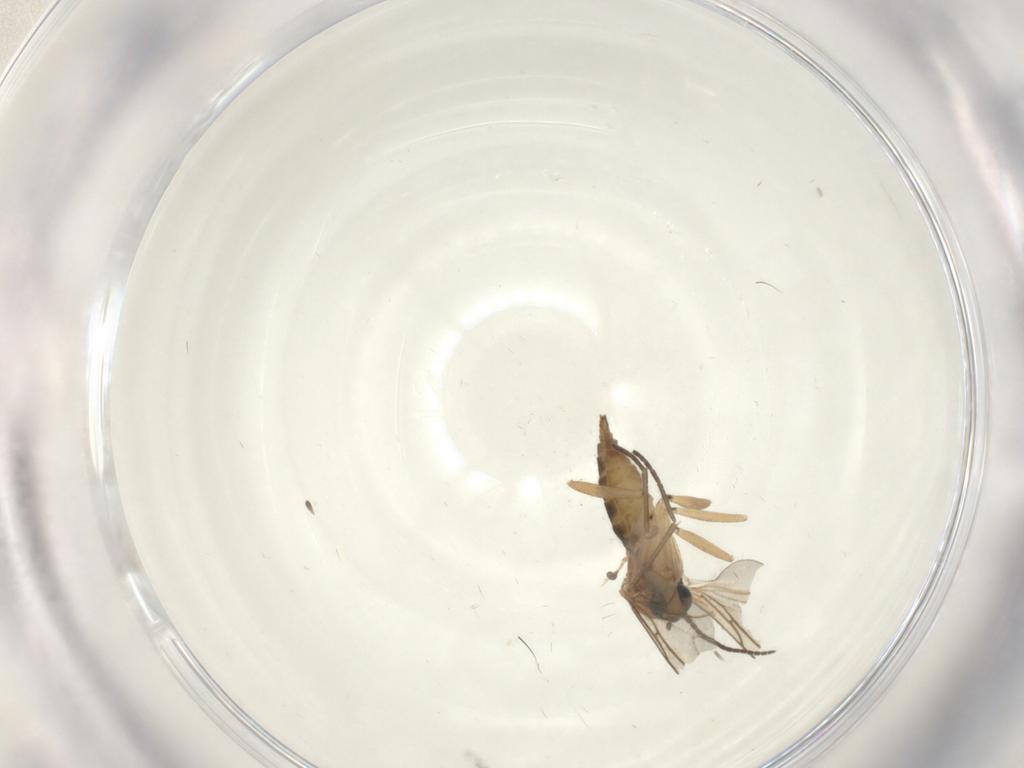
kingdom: Animalia
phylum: Arthropoda
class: Insecta
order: Diptera
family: Sciaridae
